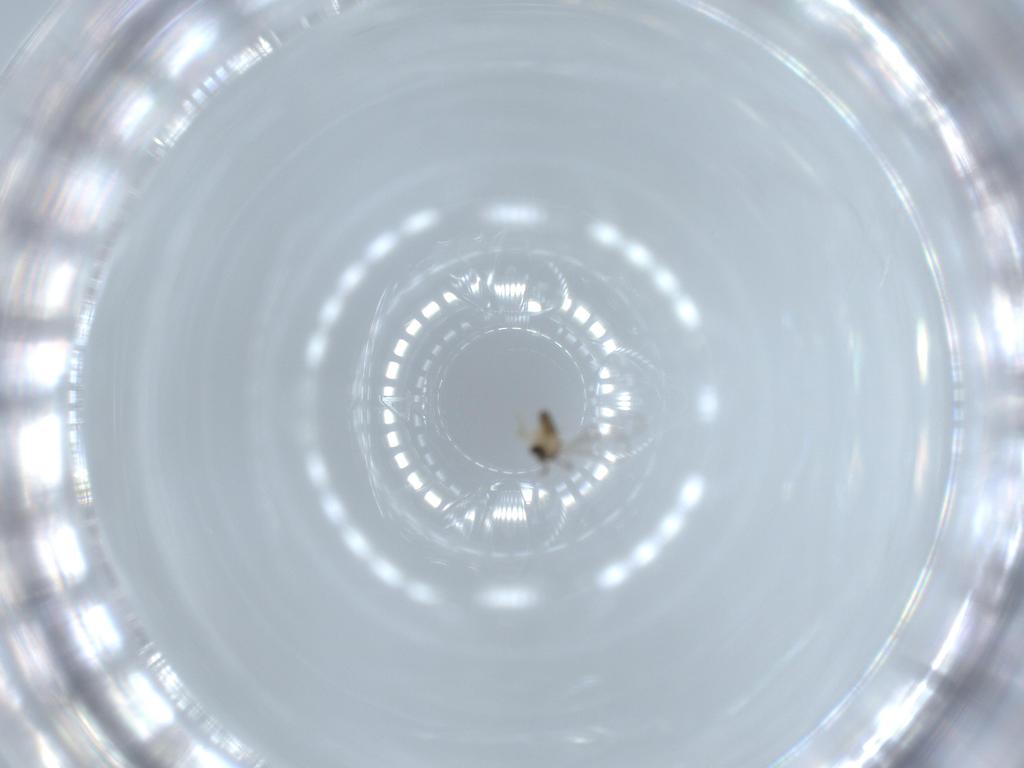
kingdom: Animalia
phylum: Arthropoda
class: Insecta
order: Diptera
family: Cecidomyiidae
